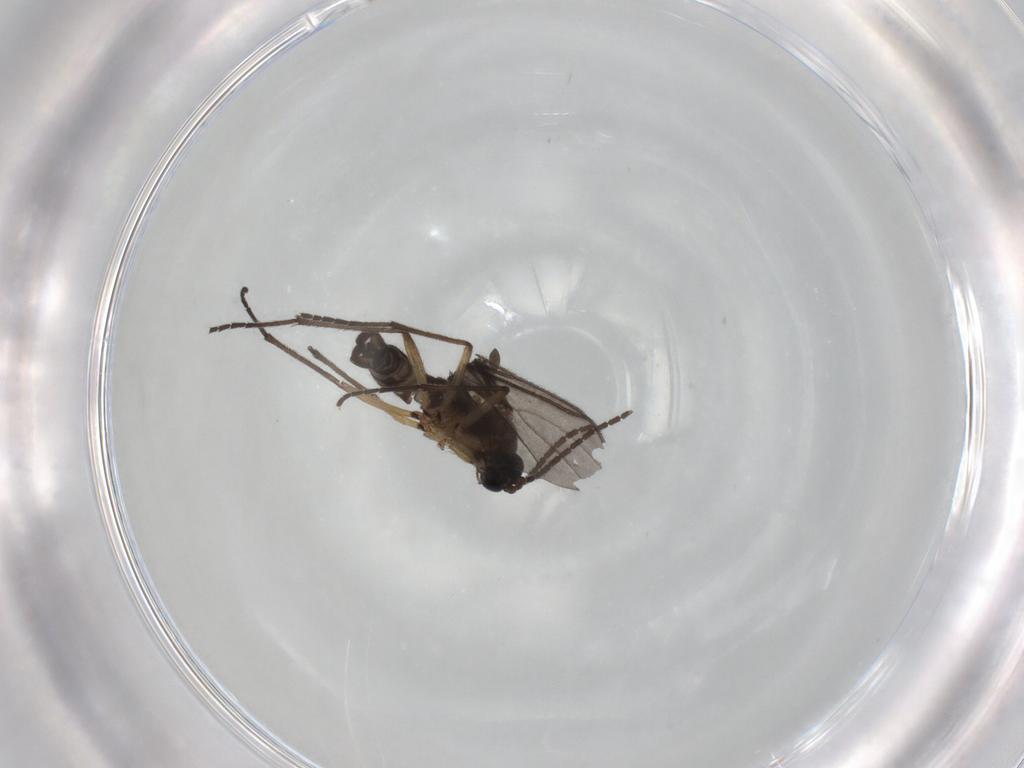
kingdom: Animalia
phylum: Arthropoda
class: Insecta
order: Diptera
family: Sciaridae
